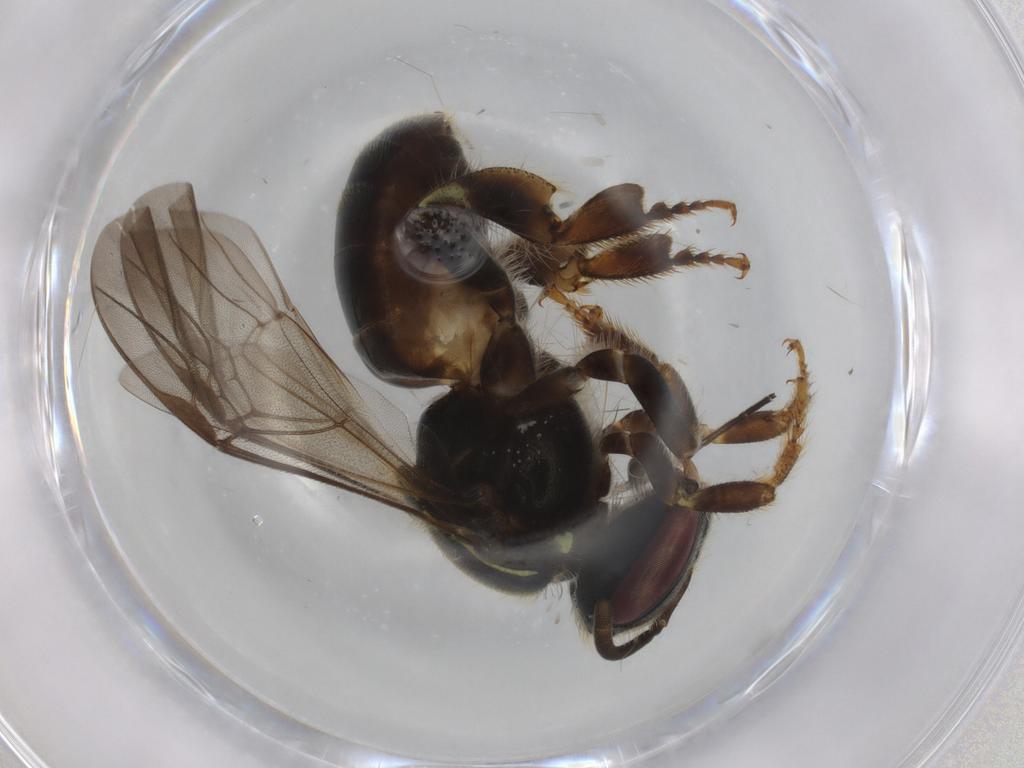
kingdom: Animalia
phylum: Arthropoda
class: Insecta
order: Hymenoptera
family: Apidae
